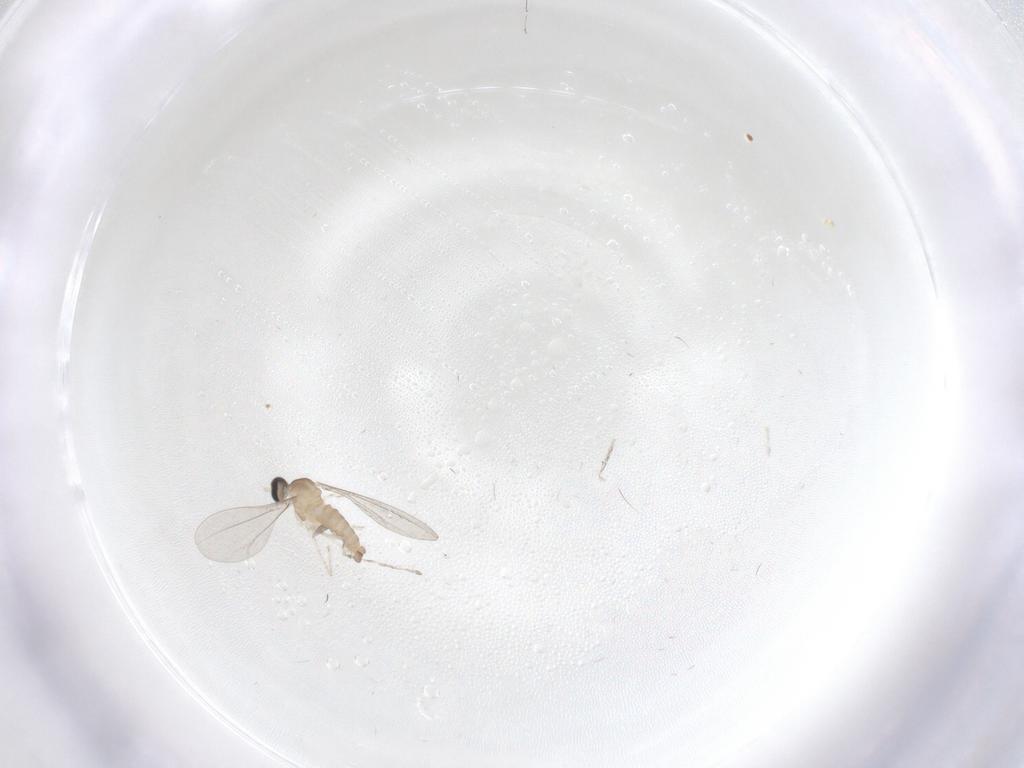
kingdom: Animalia
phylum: Arthropoda
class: Insecta
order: Diptera
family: Cecidomyiidae
